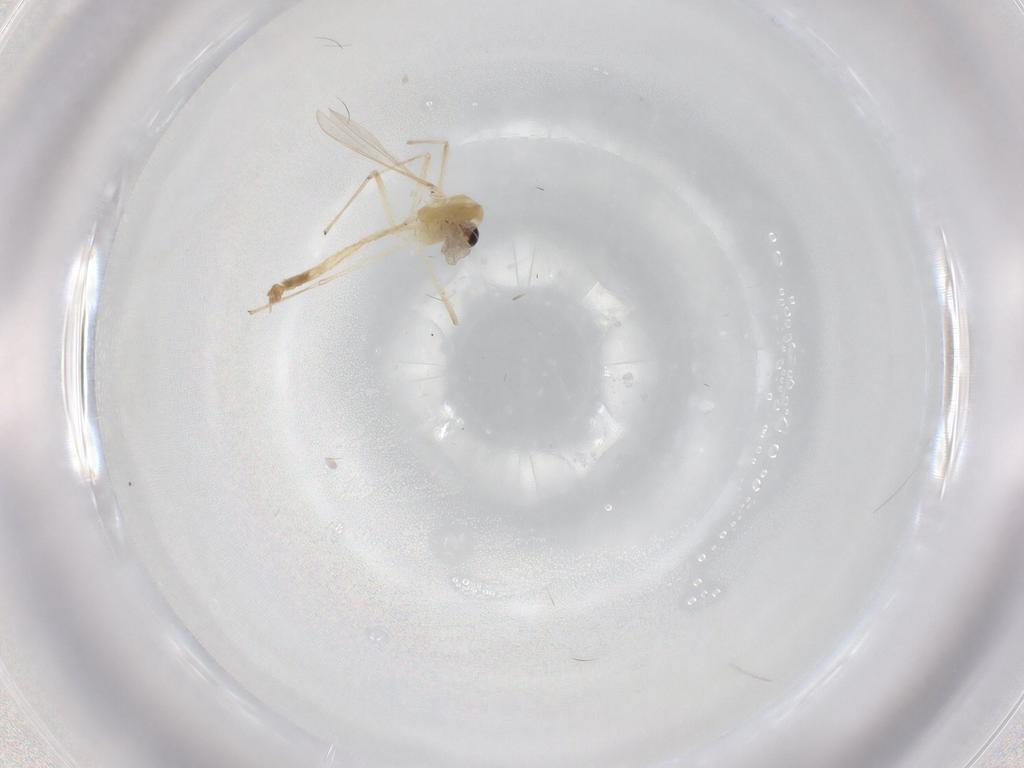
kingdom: Animalia
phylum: Arthropoda
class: Insecta
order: Diptera
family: Chironomidae
